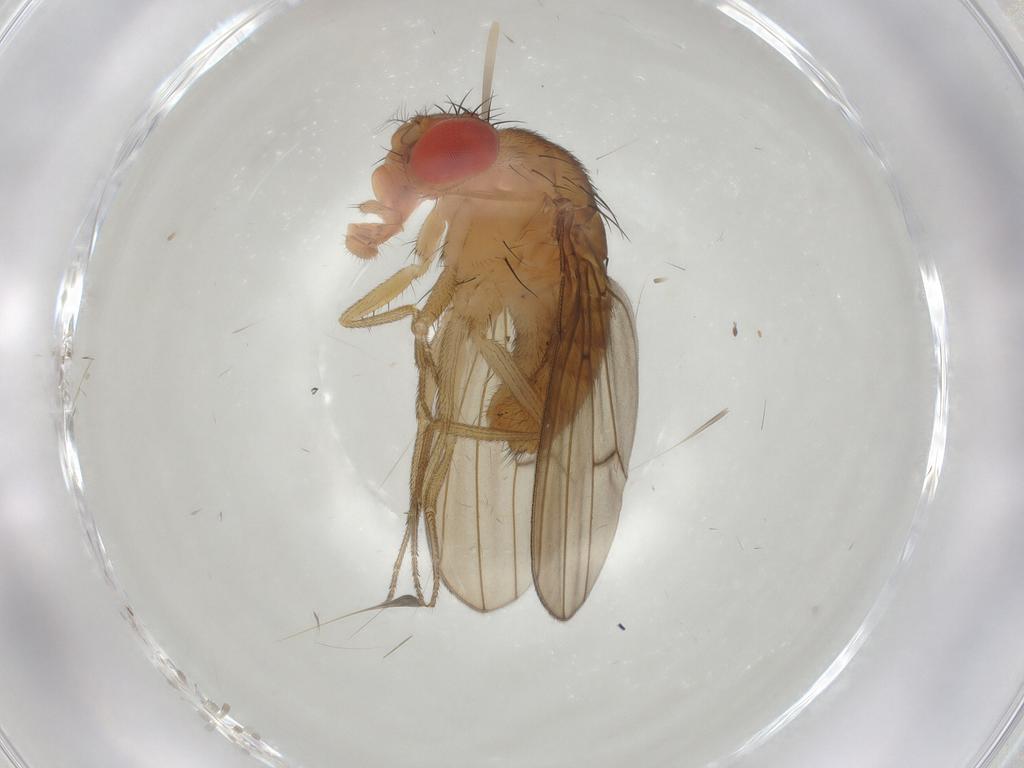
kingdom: Animalia
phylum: Arthropoda
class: Insecta
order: Diptera
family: Drosophilidae
